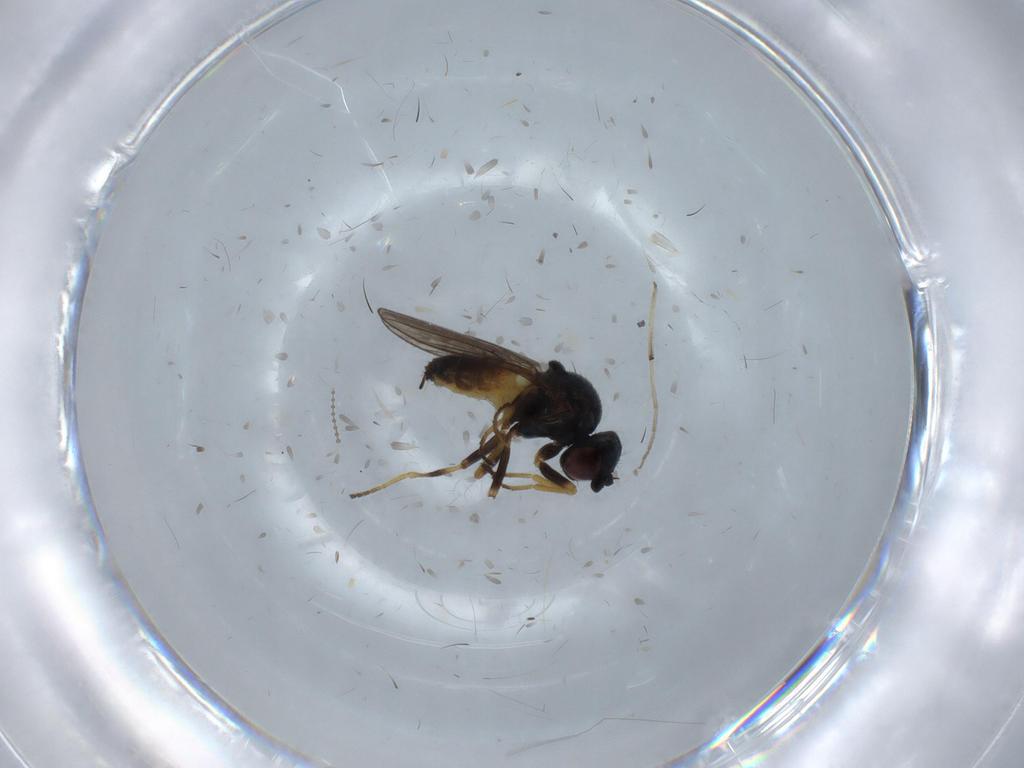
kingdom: Animalia
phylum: Arthropoda
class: Insecta
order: Diptera
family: Chloropidae
